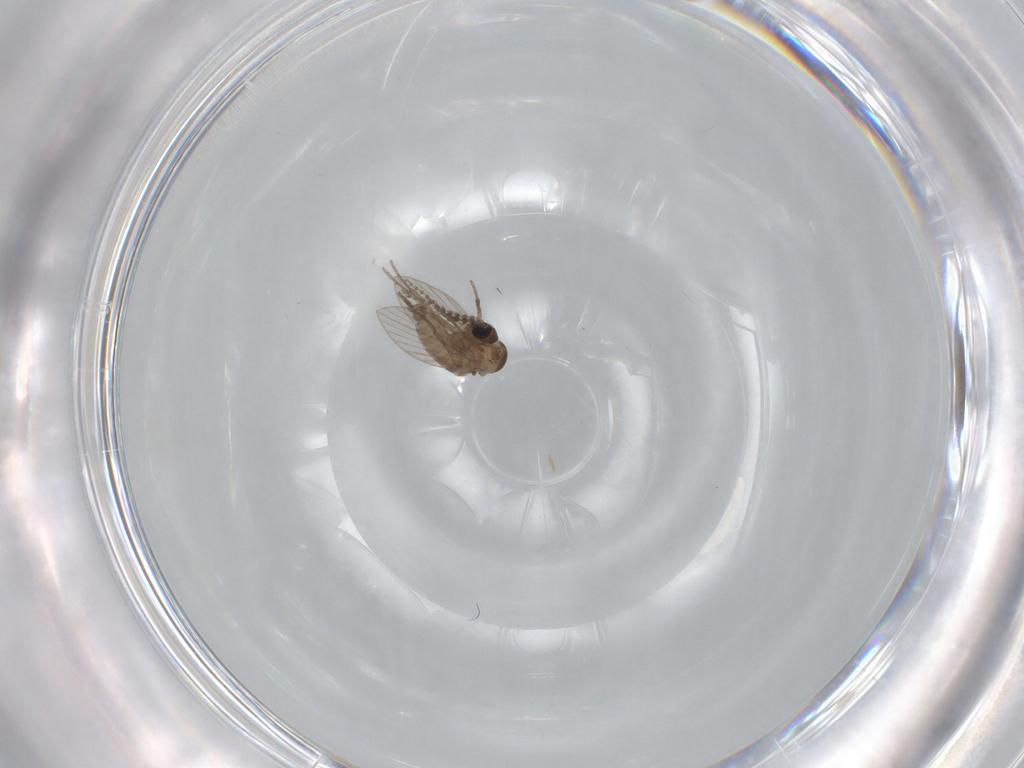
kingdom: Animalia
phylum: Arthropoda
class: Insecta
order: Diptera
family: Psychodidae
